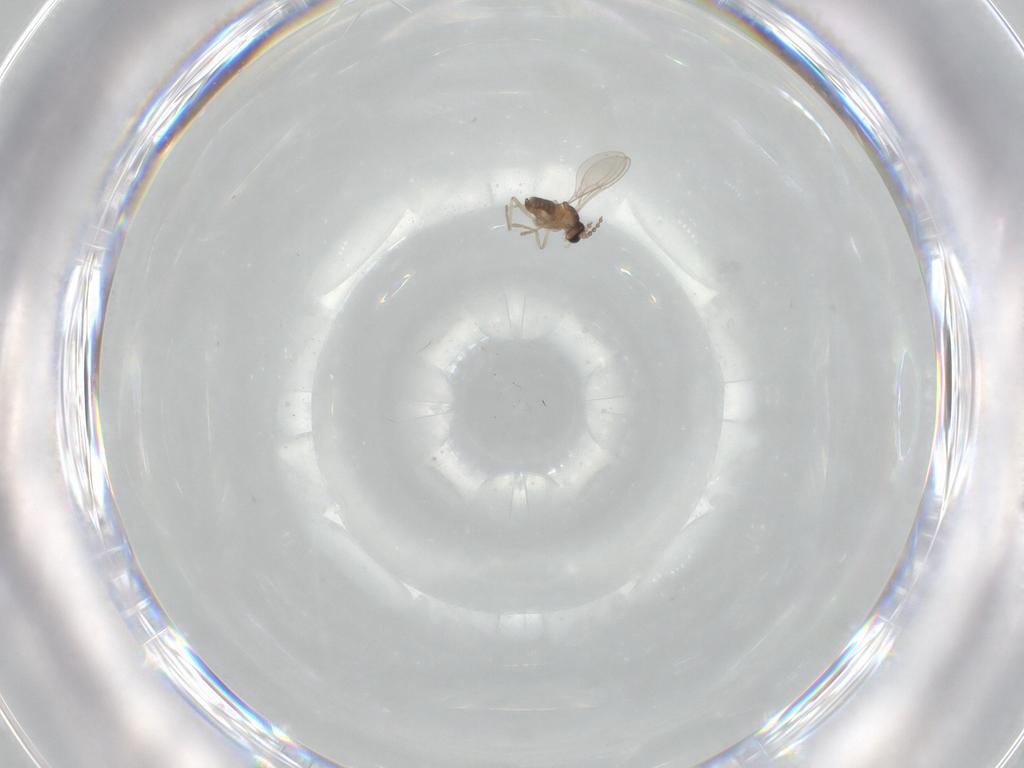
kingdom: Animalia
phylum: Arthropoda
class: Insecta
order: Diptera
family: Cecidomyiidae
